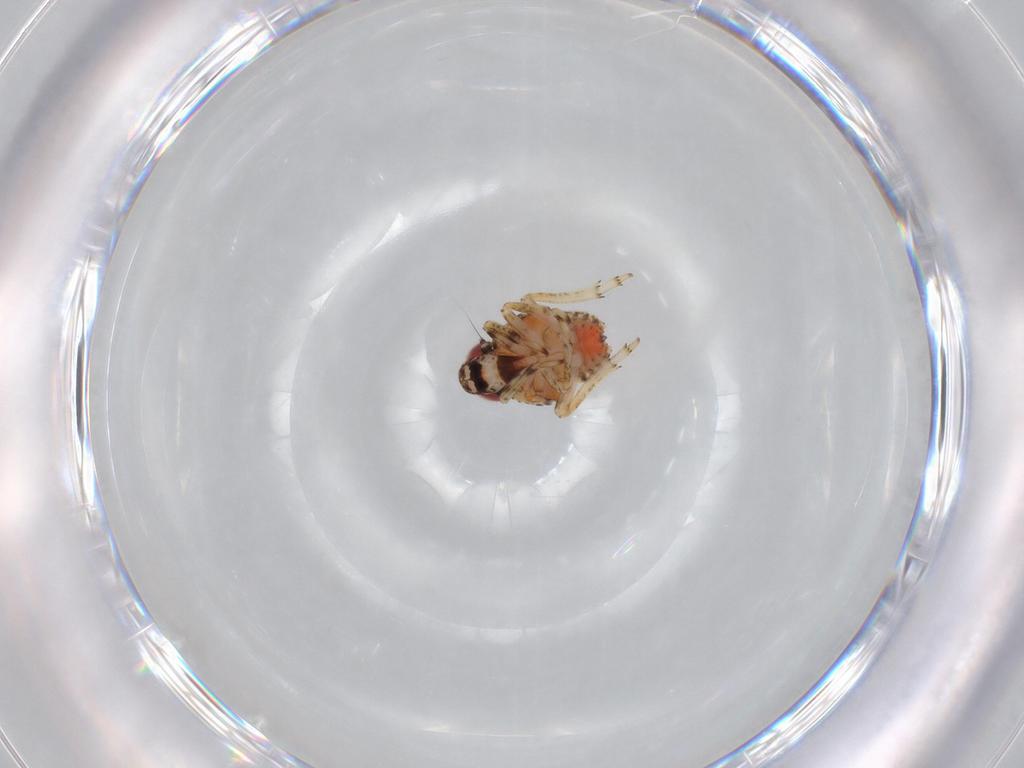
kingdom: Animalia
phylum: Arthropoda
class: Insecta
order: Hemiptera
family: Issidae
